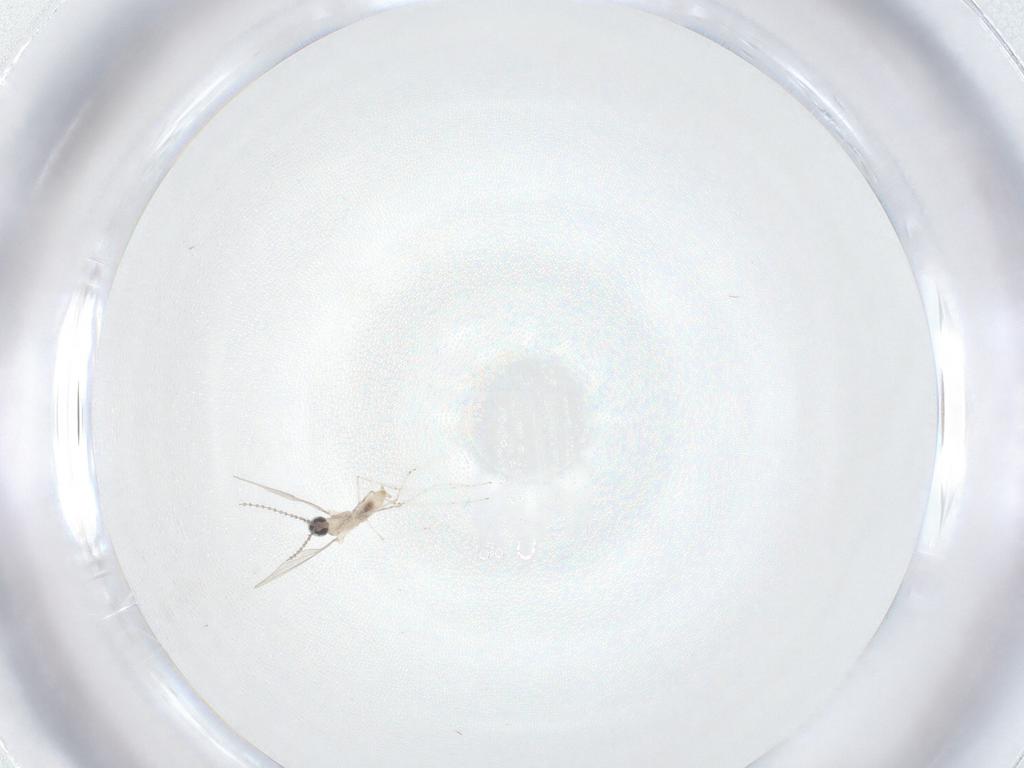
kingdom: Animalia
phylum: Arthropoda
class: Insecta
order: Diptera
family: Cecidomyiidae
